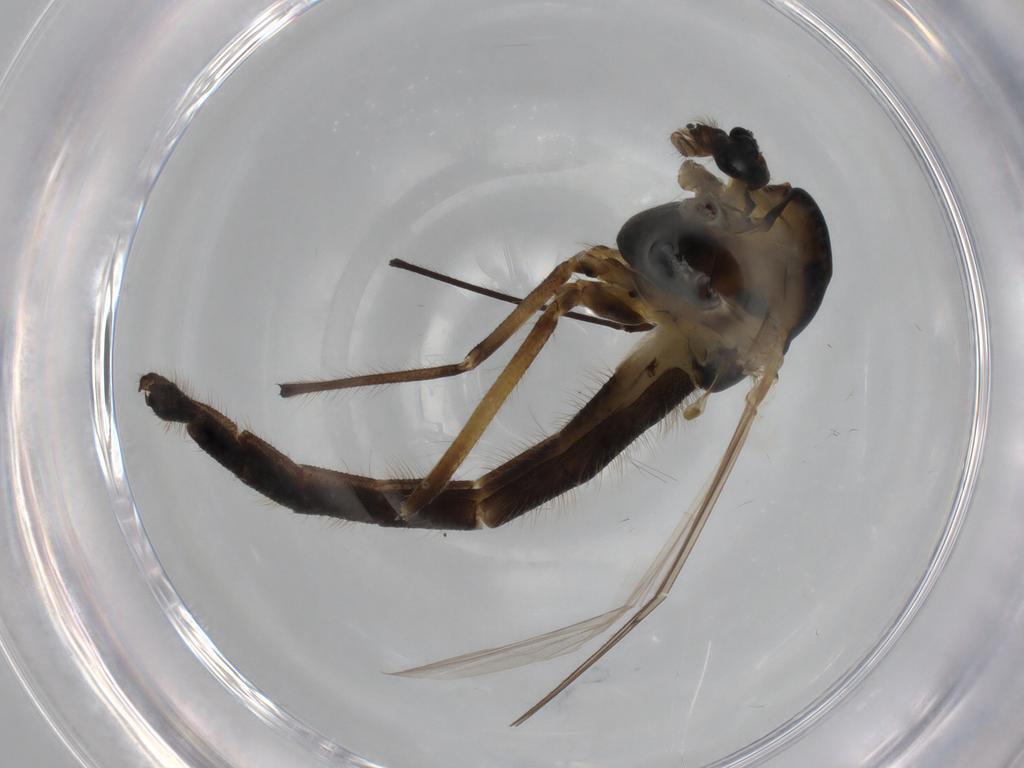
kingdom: Animalia
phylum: Arthropoda
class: Insecta
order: Diptera
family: Chironomidae
